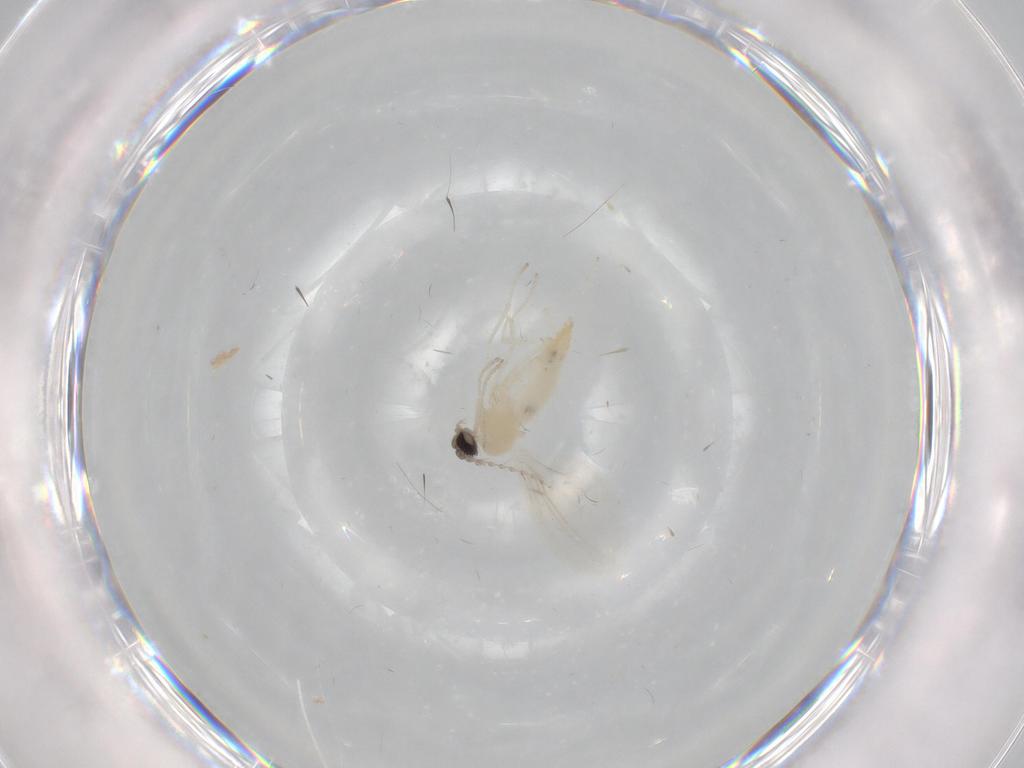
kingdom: Animalia
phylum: Arthropoda
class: Insecta
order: Diptera
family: Cecidomyiidae
